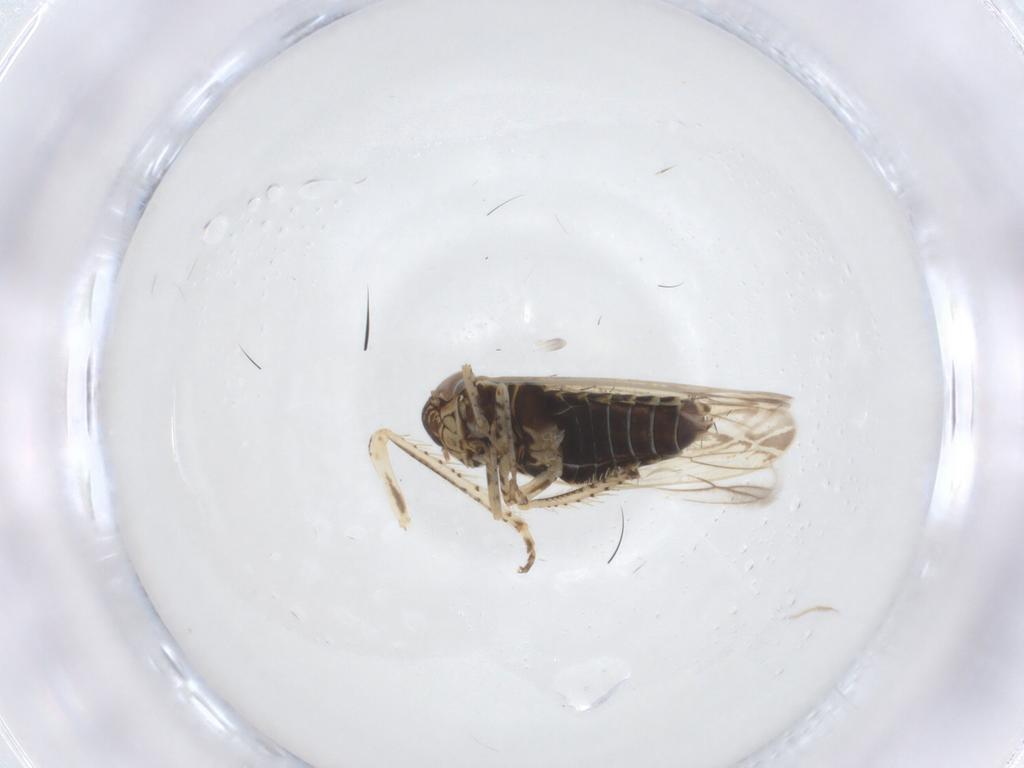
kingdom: Animalia
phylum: Arthropoda
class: Insecta
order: Hemiptera
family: Cicadellidae
